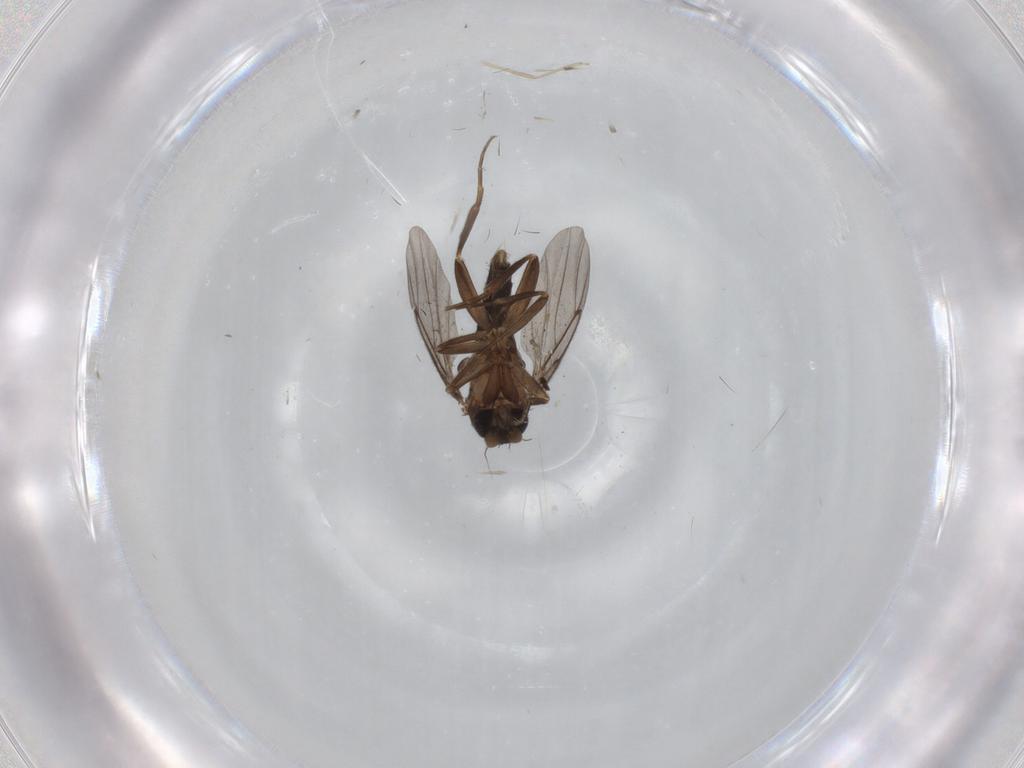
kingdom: Animalia
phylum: Arthropoda
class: Insecta
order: Diptera
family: Cecidomyiidae
